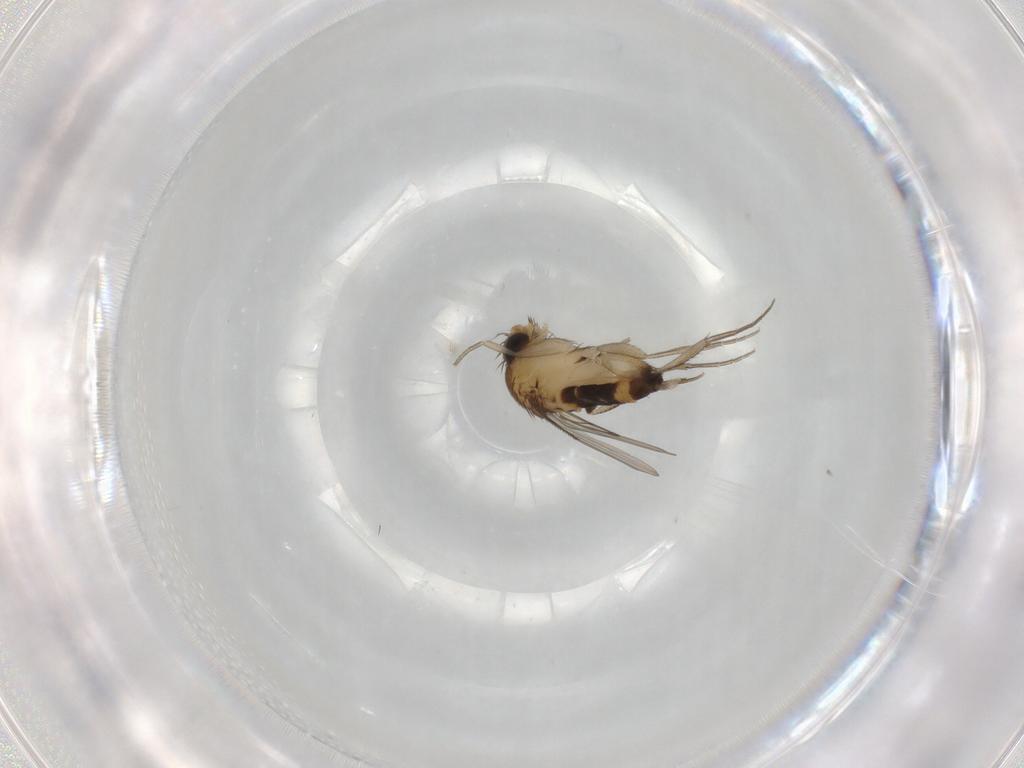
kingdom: Animalia
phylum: Arthropoda
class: Insecta
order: Diptera
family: Phoridae
